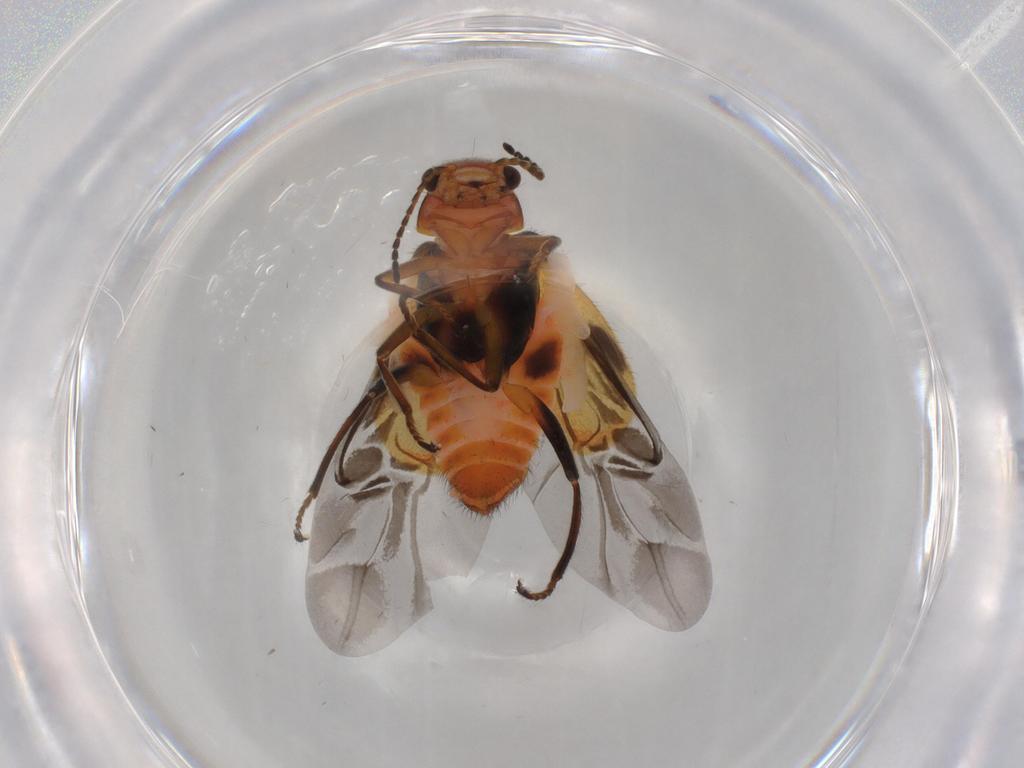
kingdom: Animalia
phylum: Arthropoda
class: Insecta
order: Coleoptera
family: Melyridae
